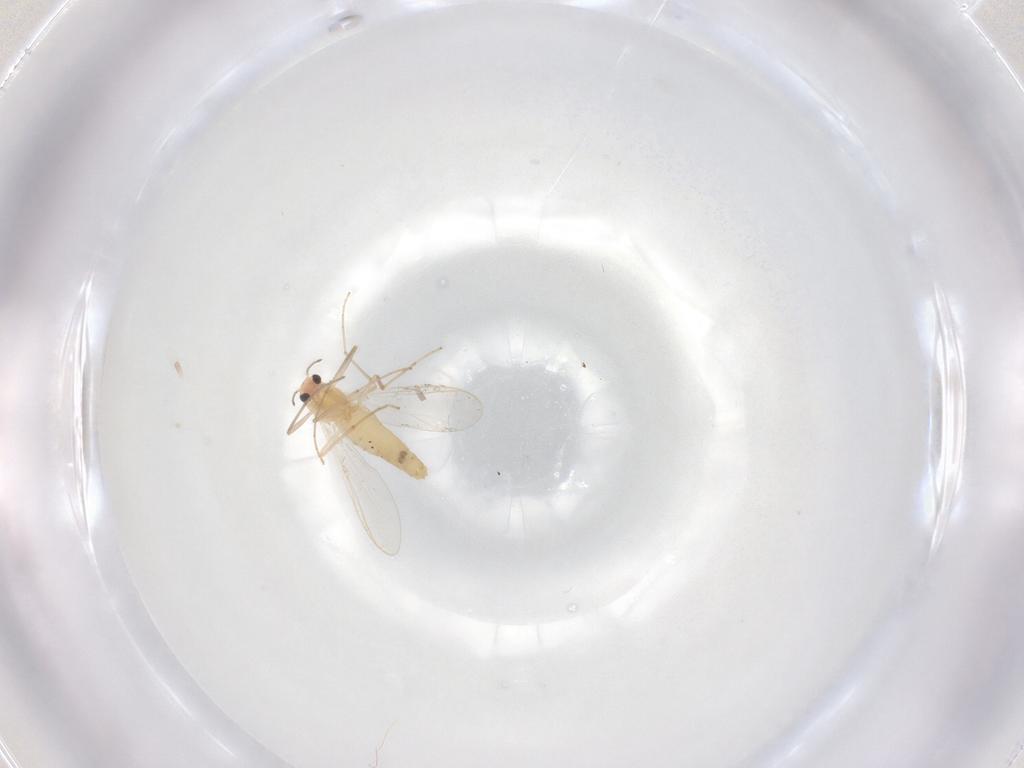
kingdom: Animalia
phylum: Arthropoda
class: Insecta
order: Diptera
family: Chironomidae
